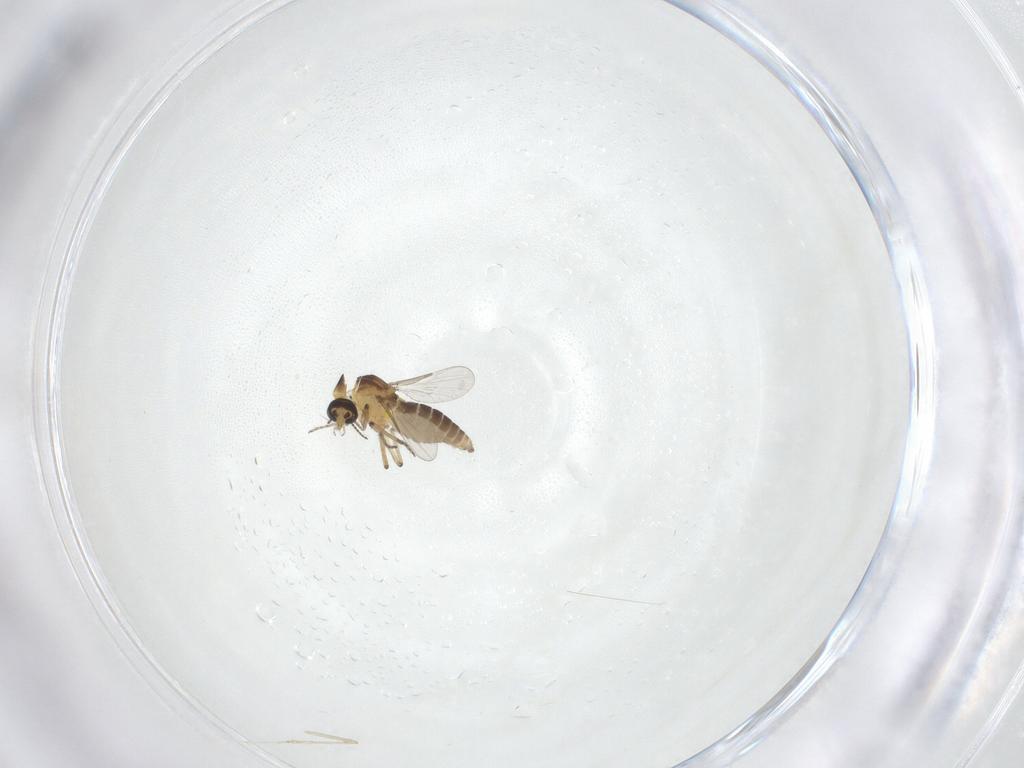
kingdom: Animalia
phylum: Arthropoda
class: Insecta
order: Diptera
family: Ceratopogonidae
